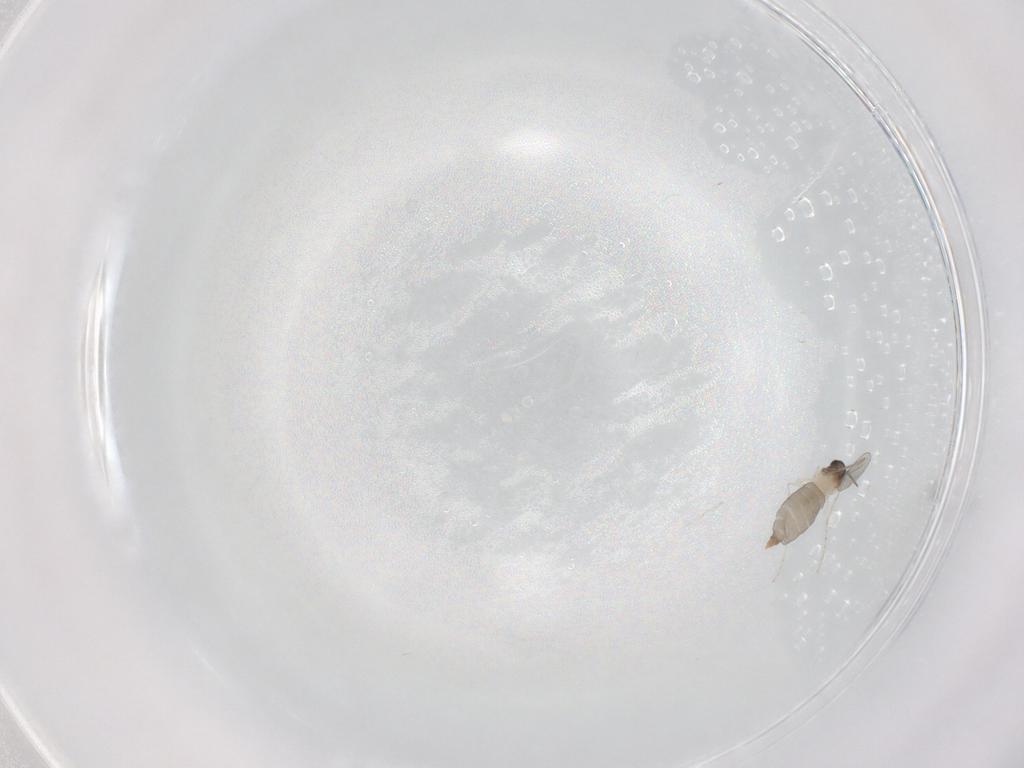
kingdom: Animalia
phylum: Arthropoda
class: Insecta
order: Diptera
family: Cecidomyiidae
